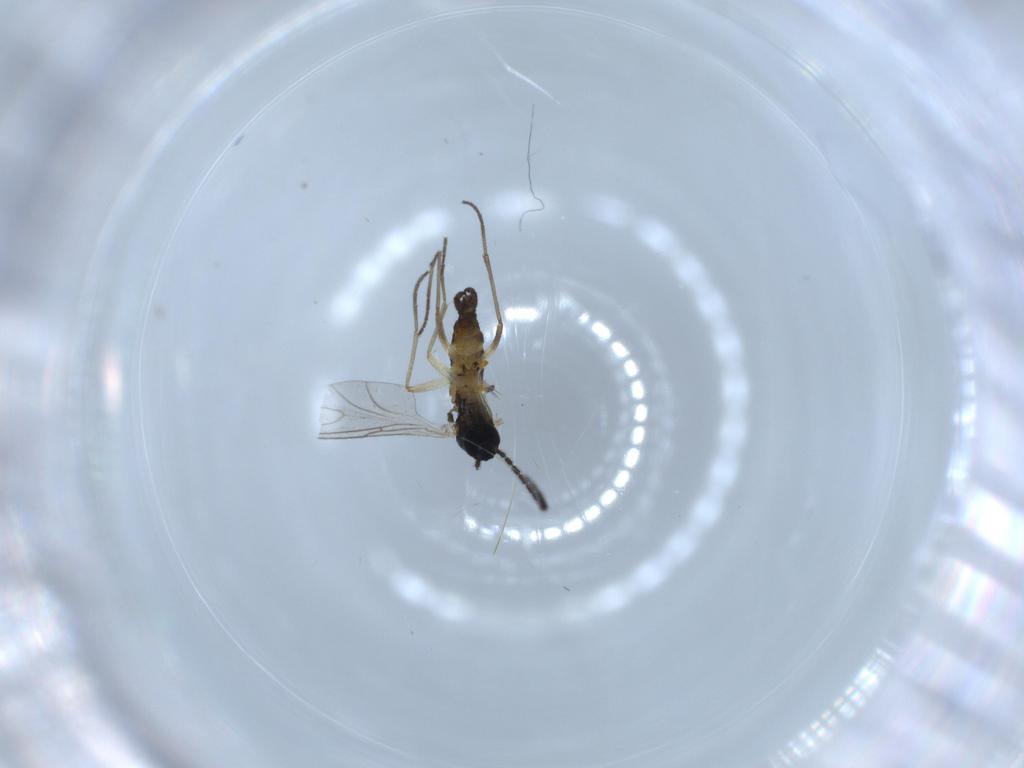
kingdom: Animalia
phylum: Arthropoda
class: Insecta
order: Diptera
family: Sciaridae
